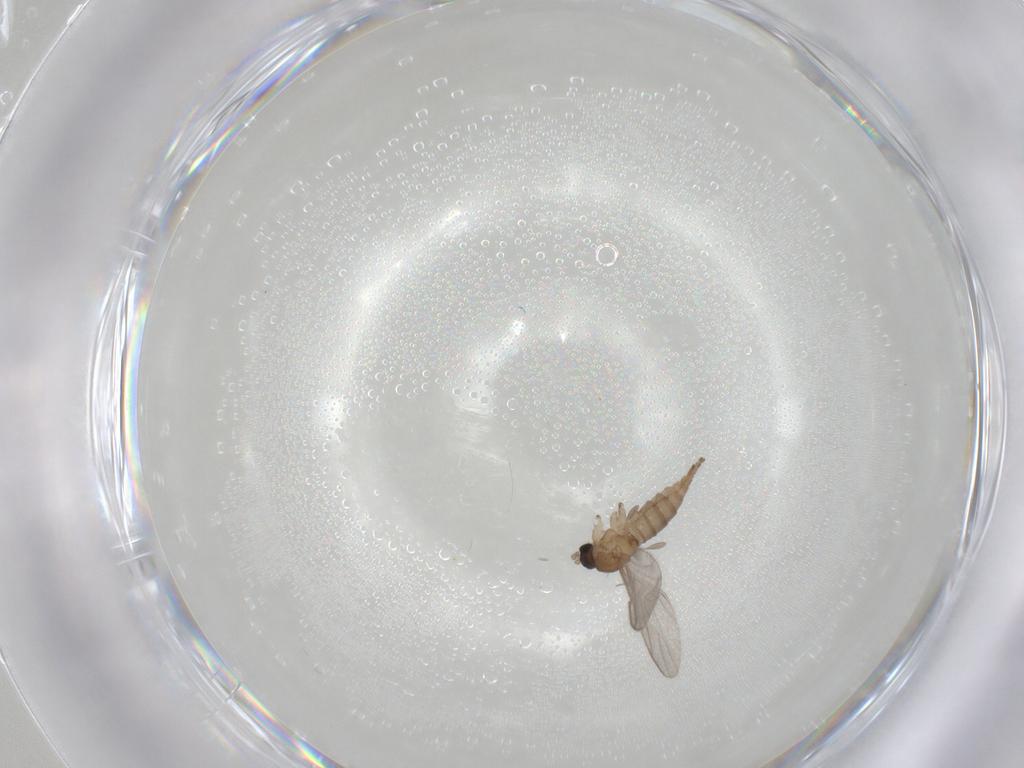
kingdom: Animalia
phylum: Arthropoda
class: Insecta
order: Diptera
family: Sciaridae
